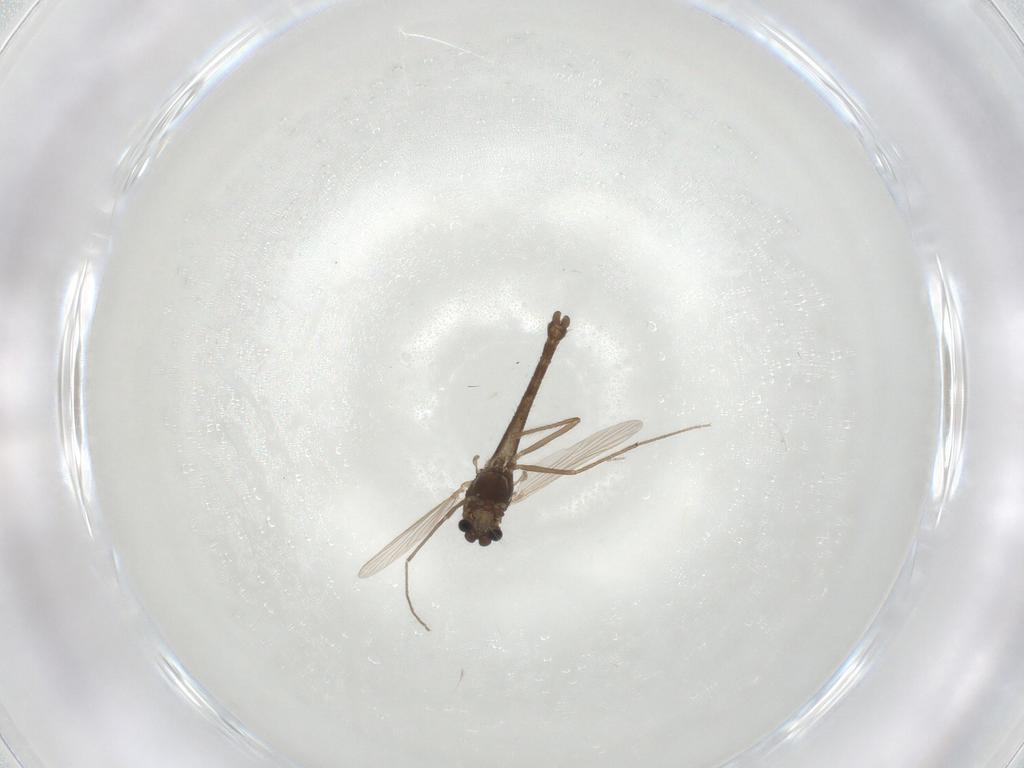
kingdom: Animalia
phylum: Arthropoda
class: Insecta
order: Diptera
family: Chironomidae
